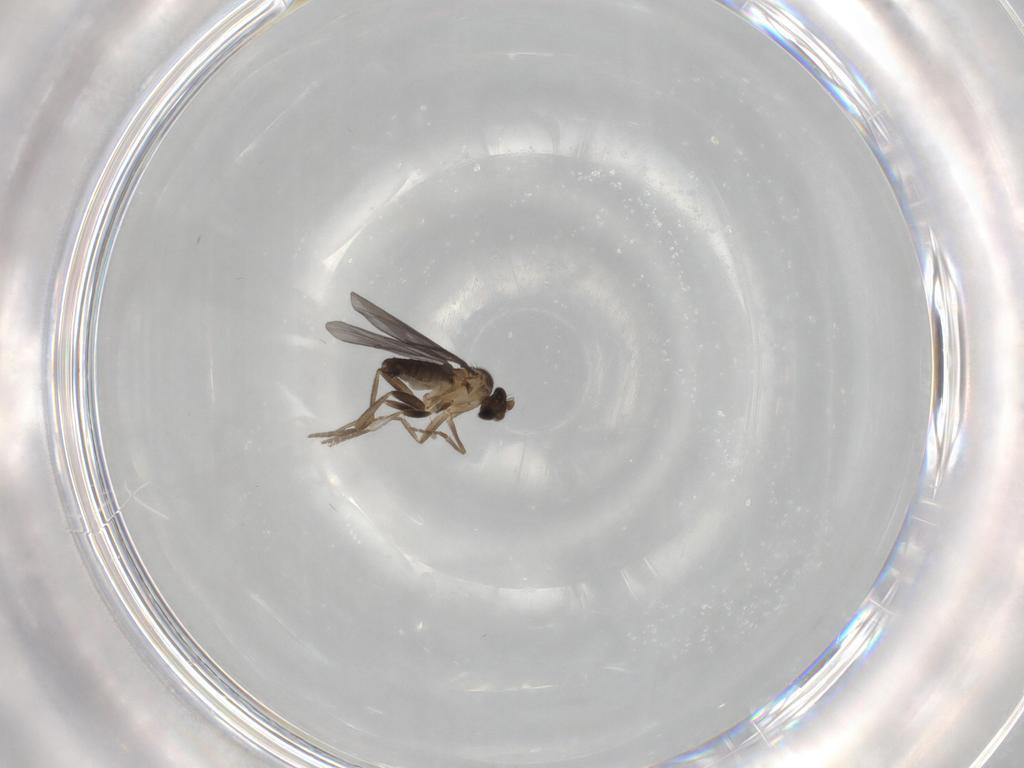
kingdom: Animalia
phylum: Arthropoda
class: Insecta
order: Diptera
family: Phoridae
